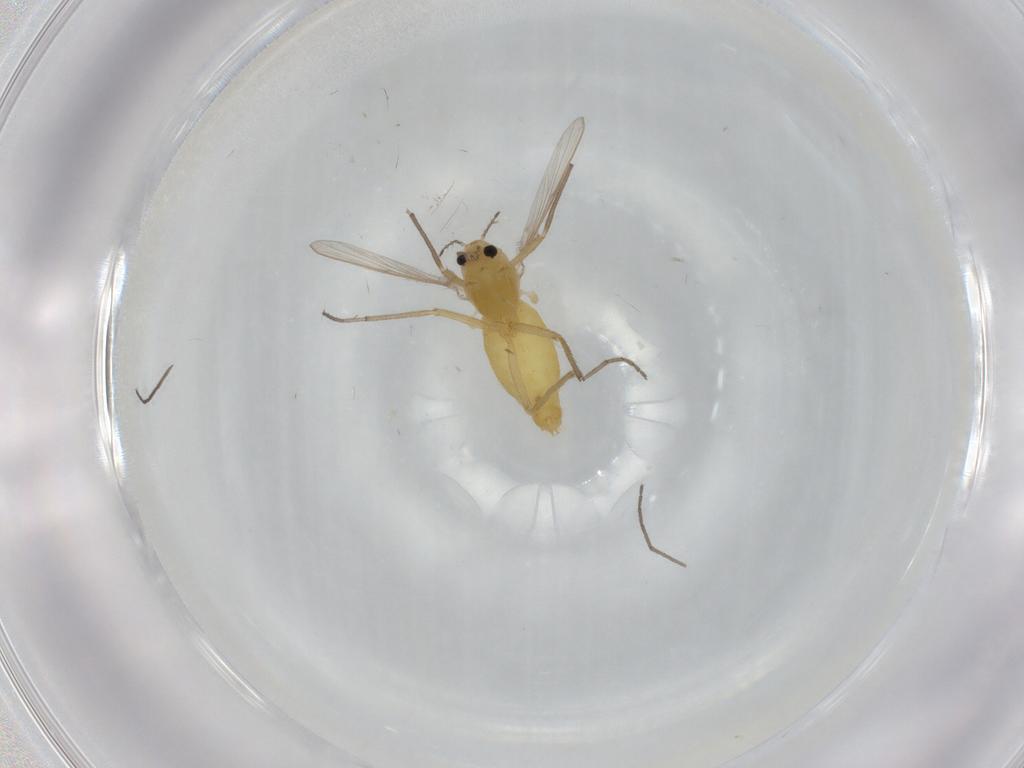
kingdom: Animalia
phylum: Arthropoda
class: Insecta
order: Diptera
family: Chironomidae
